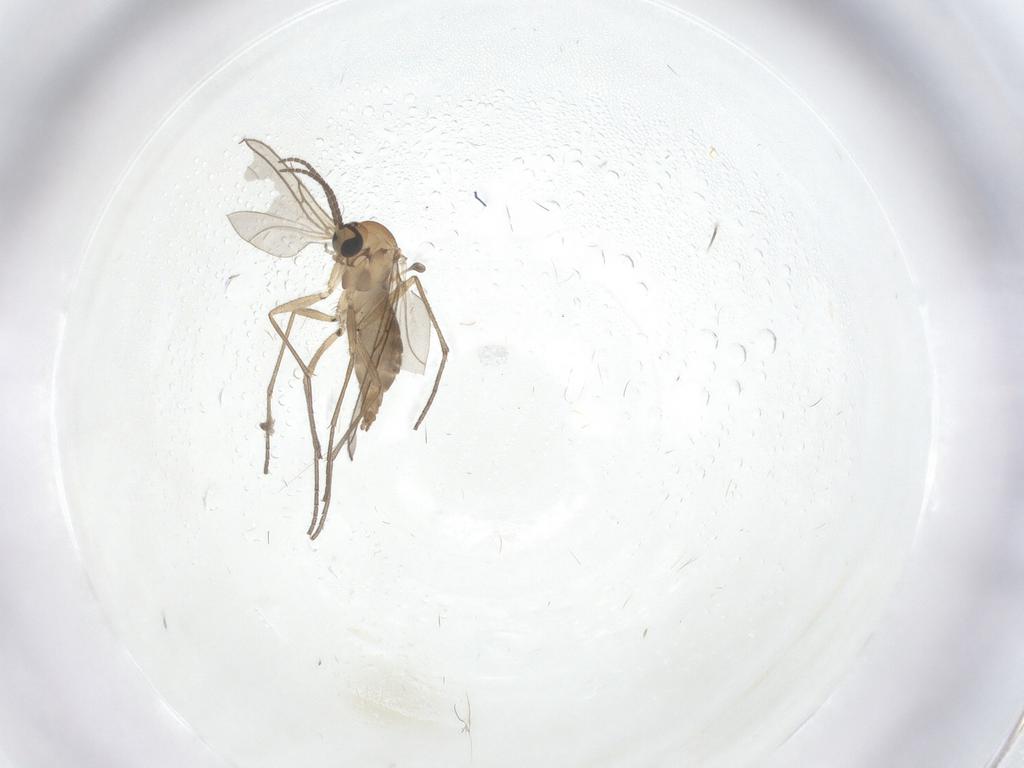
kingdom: Animalia
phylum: Arthropoda
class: Insecta
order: Diptera
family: Sciaridae
